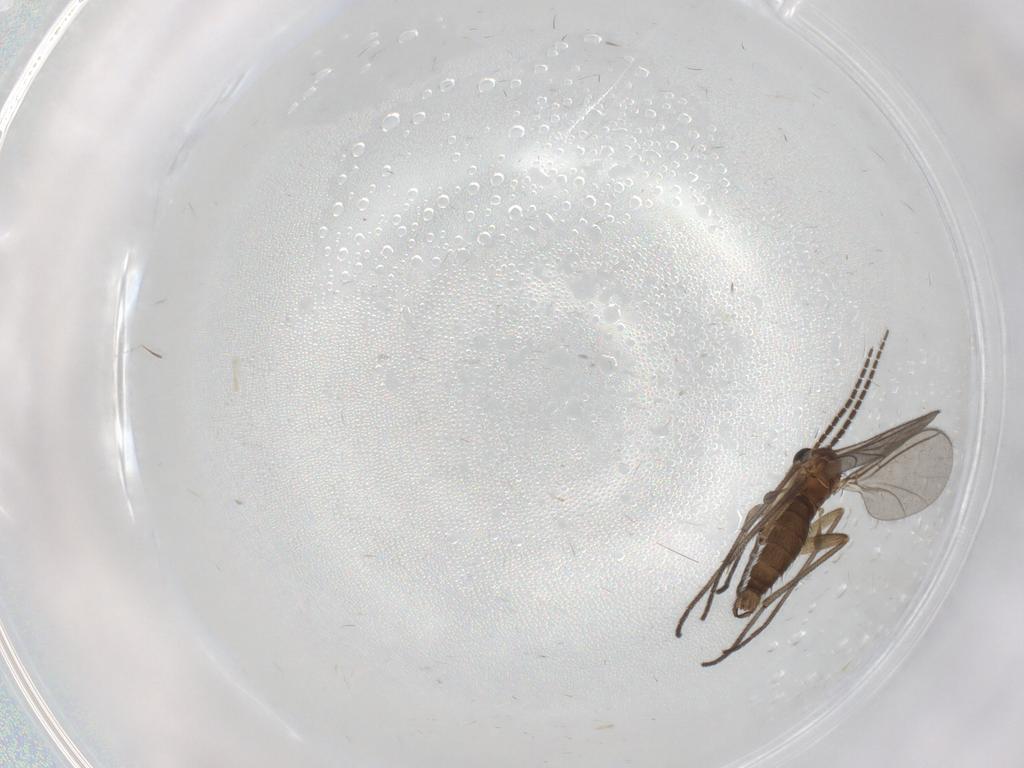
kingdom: Animalia
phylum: Arthropoda
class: Insecta
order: Diptera
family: Sciaridae
